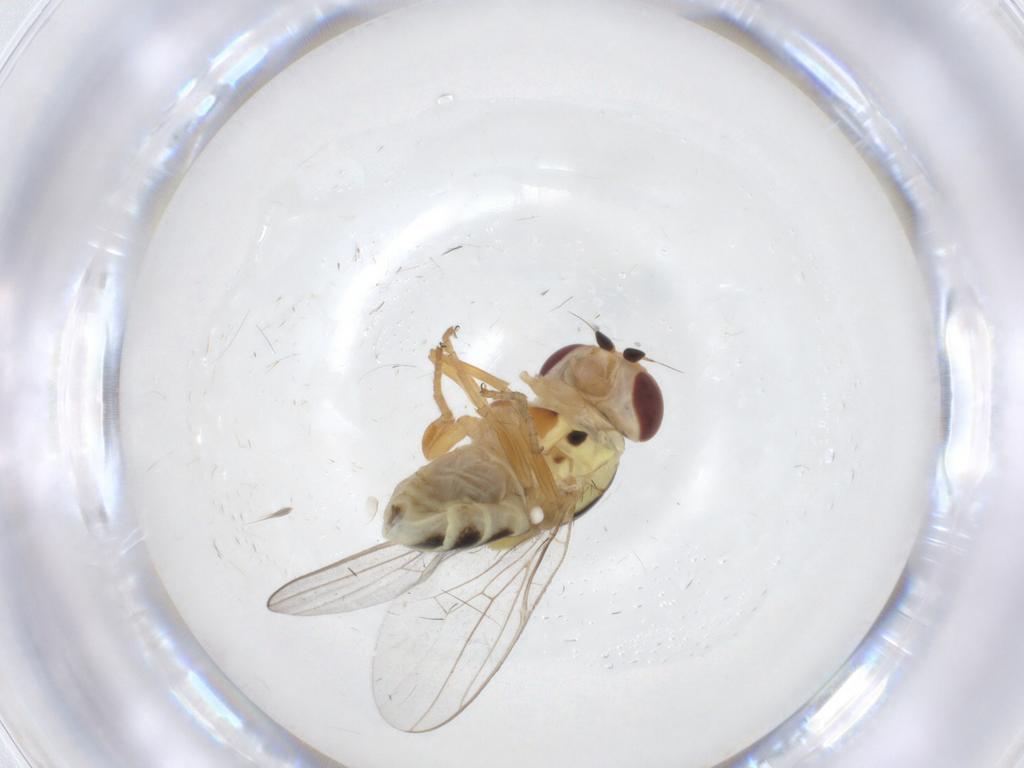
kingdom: Animalia
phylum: Arthropoda
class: Insecta
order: Diptera
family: Chloropidae
